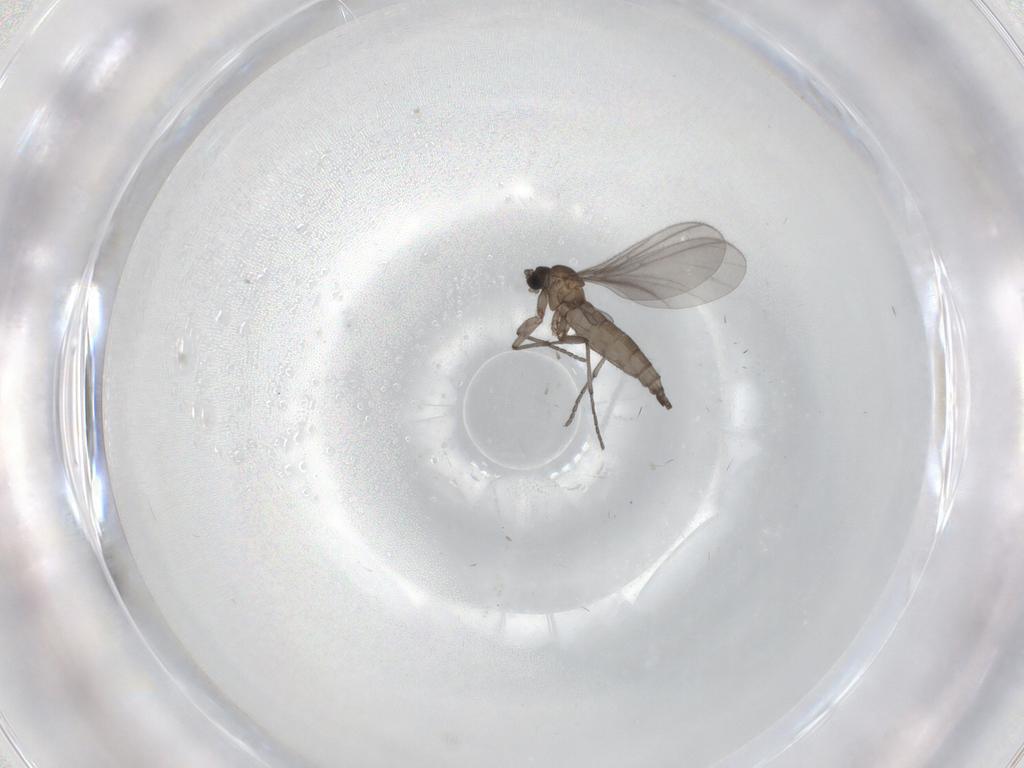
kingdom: Animalia
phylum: Arthropoda
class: Insecta
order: Diptera
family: Sciaridae
